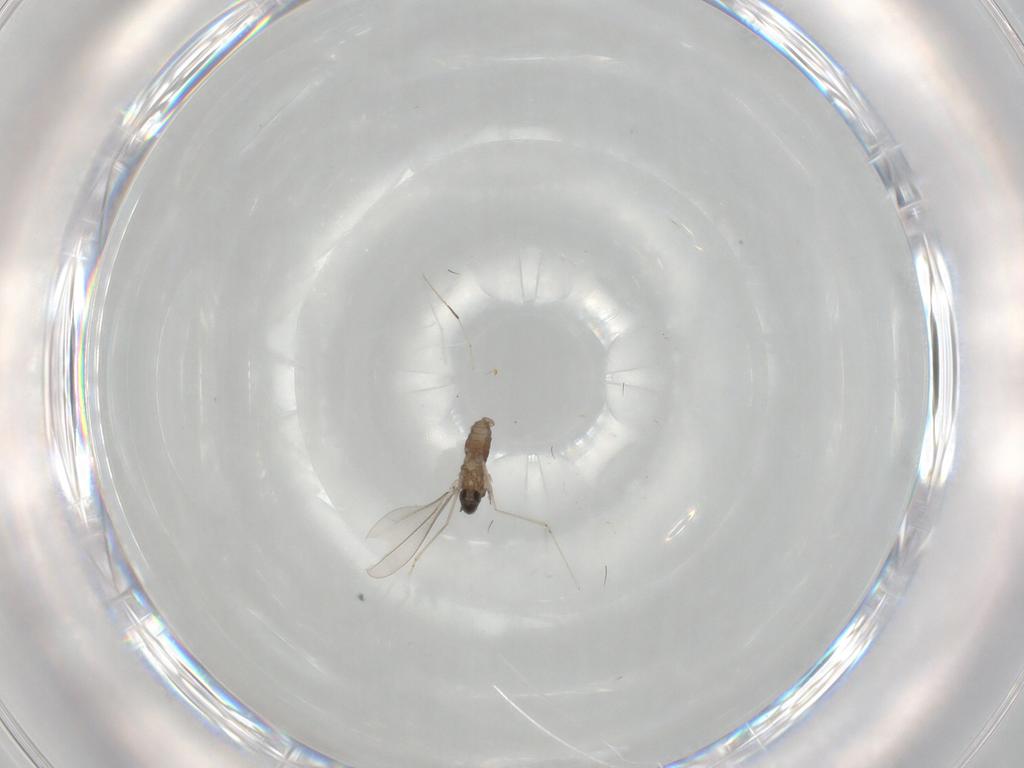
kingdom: Animalia
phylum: Arthropoda
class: Insecta
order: Diptera
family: Cecidomyiidae
